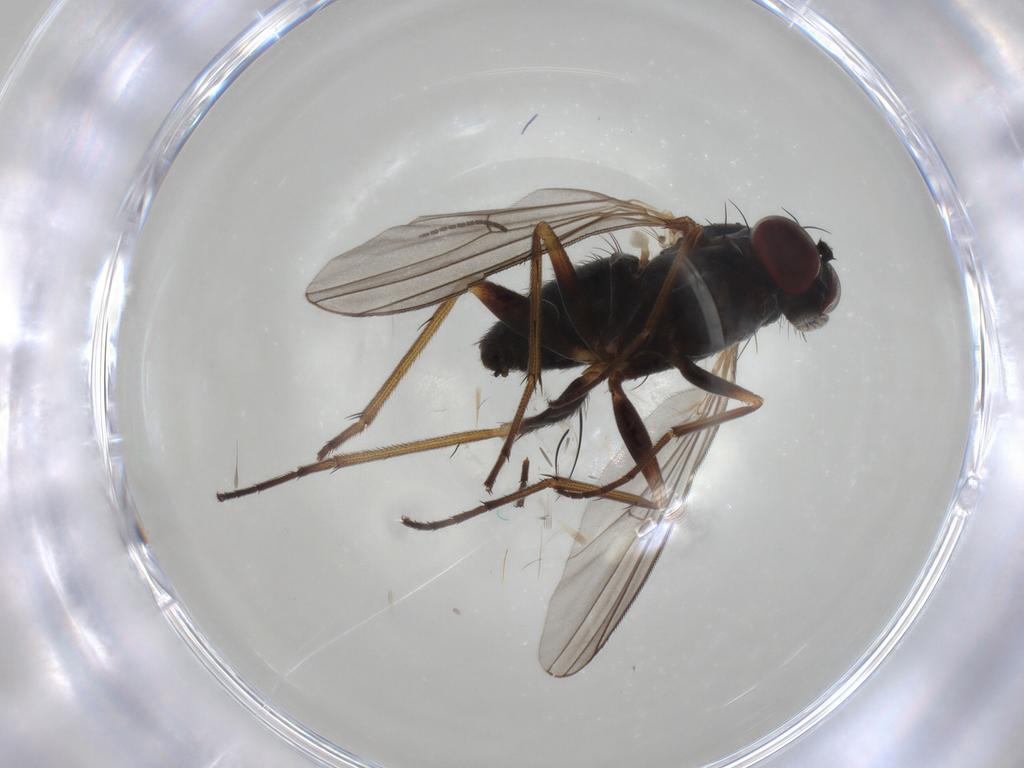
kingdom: Animalia
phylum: Arthropoda
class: Insecta
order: Diptera
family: Dolichopodidae
